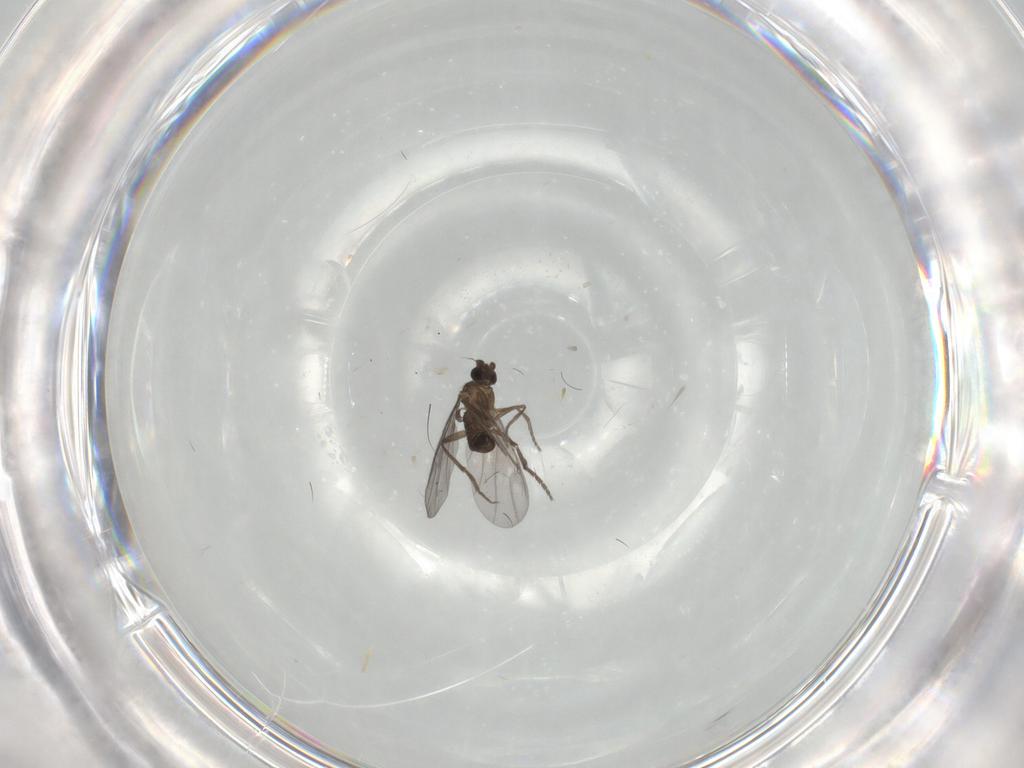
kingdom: Animalia
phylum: Arthropoda
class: Insecta
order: Diptera
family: Phoridae
